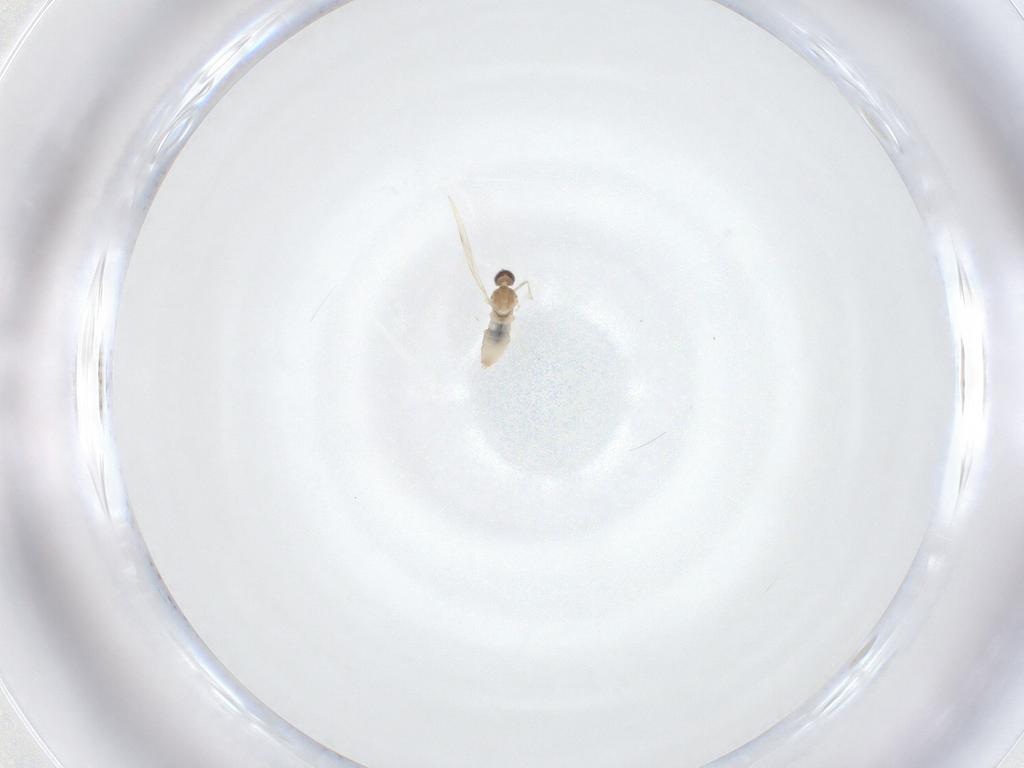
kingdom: Animalia
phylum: Arthropoda
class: Insecta
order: Diptera
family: Cecidomyiidae
